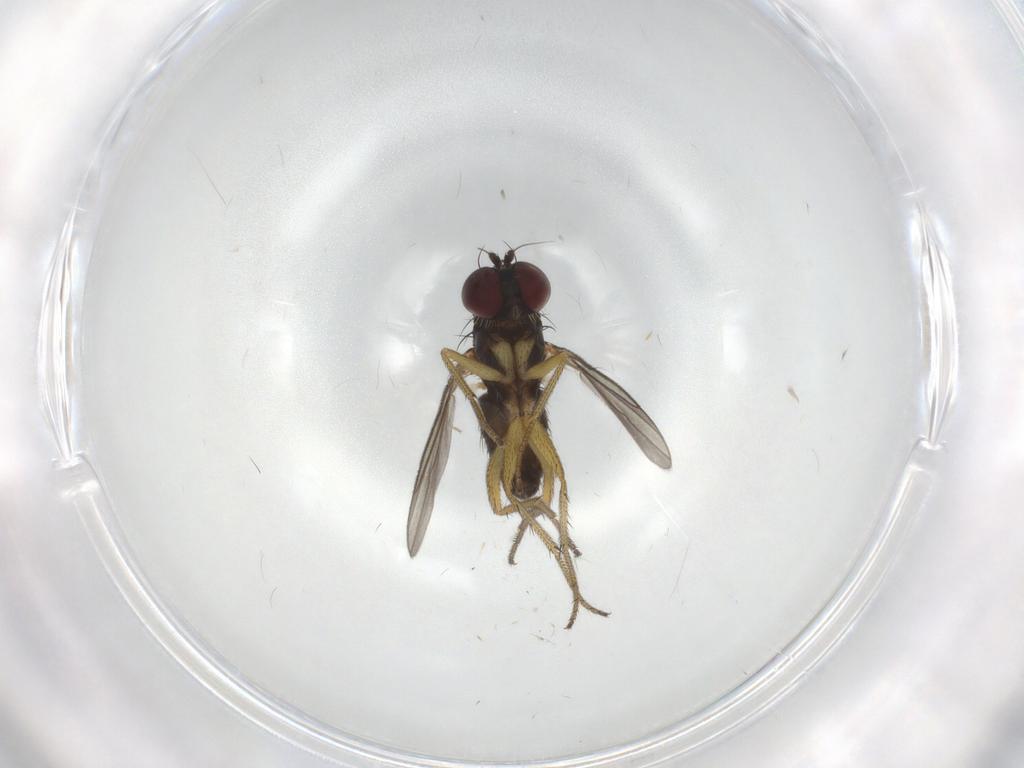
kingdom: Animalia
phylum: Arthropoda
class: Insecta
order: Diptera
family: Dolichopodidae
